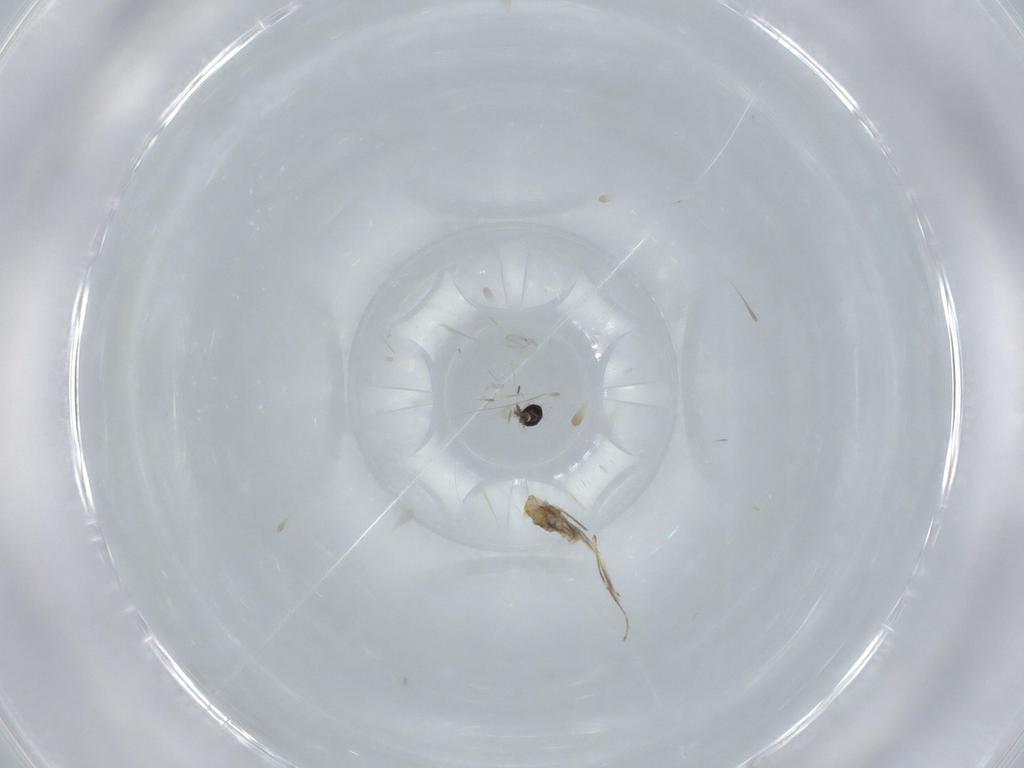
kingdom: Animalia
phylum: Arthropoda
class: Insecta
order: Diptera
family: Cecidomyiidae
